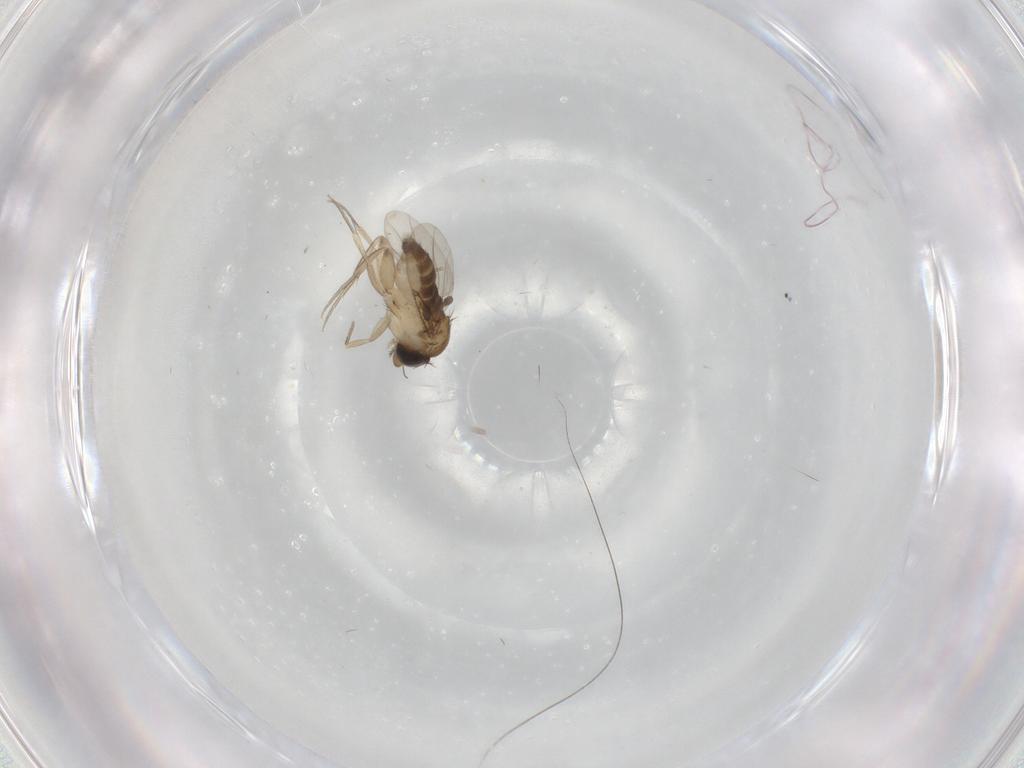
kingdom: Animalia
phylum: Arthropoda
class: Insecta
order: Diptera
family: Phoridae
